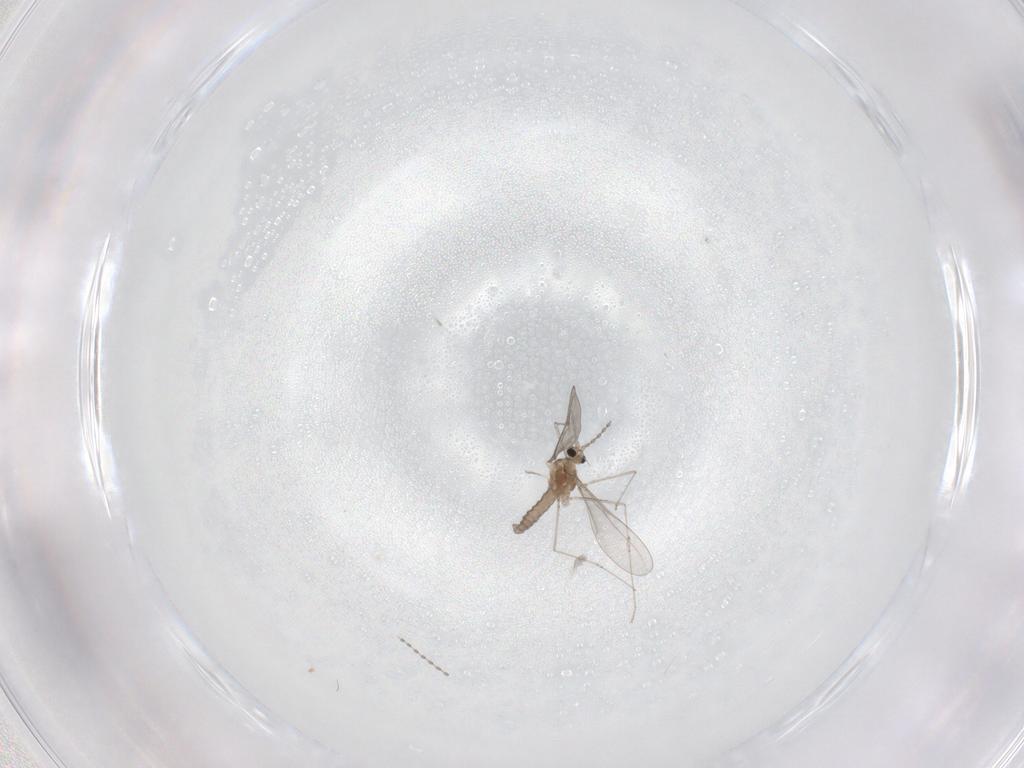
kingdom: Animalia
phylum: Arthropoda
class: Insecta
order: Diptera
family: Cecidomyiidae
